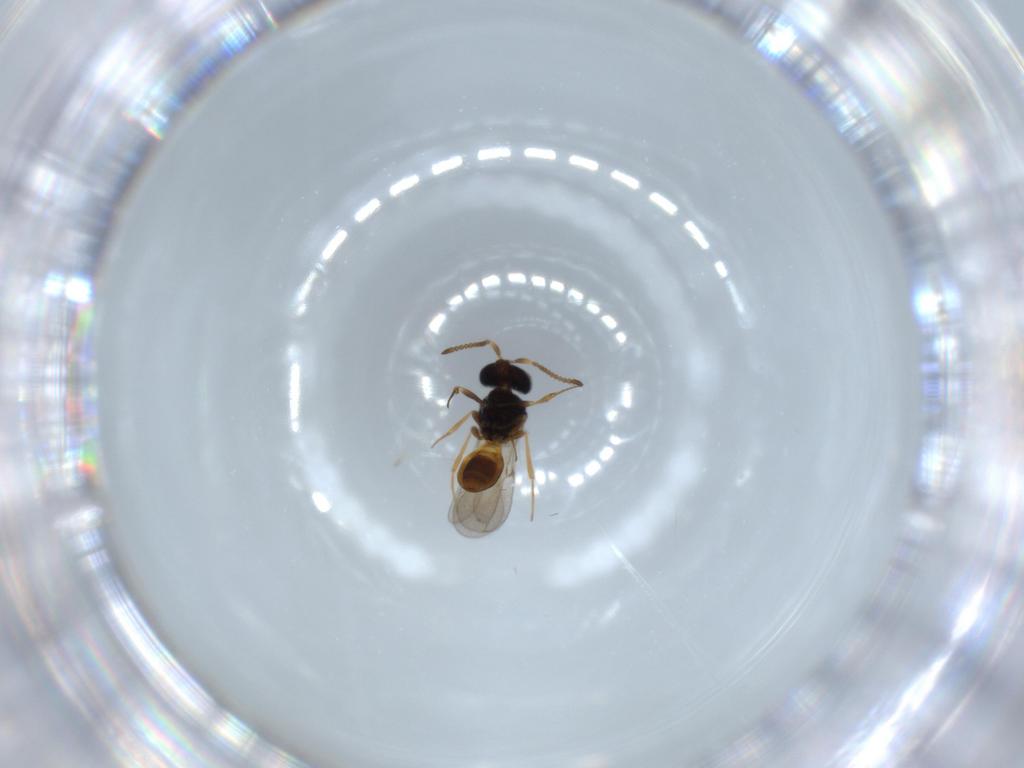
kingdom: Animalia
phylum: Arthropoda
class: Insecta
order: Hymenoptera
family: Scelionidae
